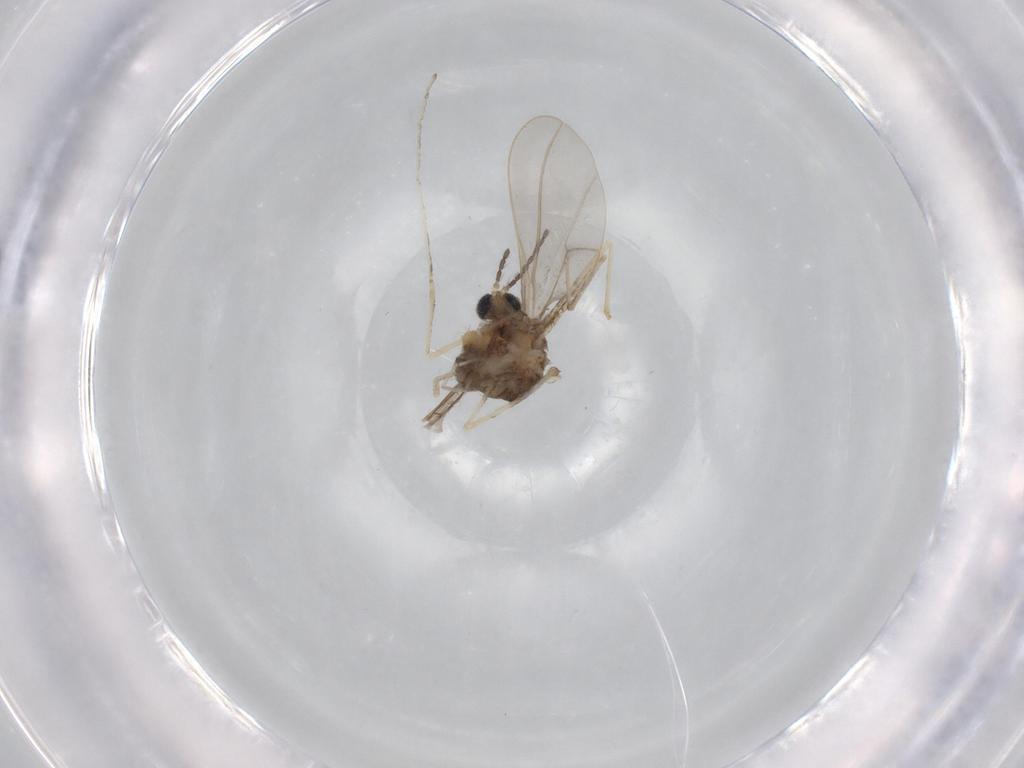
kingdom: Animalia
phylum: Arthropoda
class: Insecta
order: Diptera
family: Cecidomyiidae
